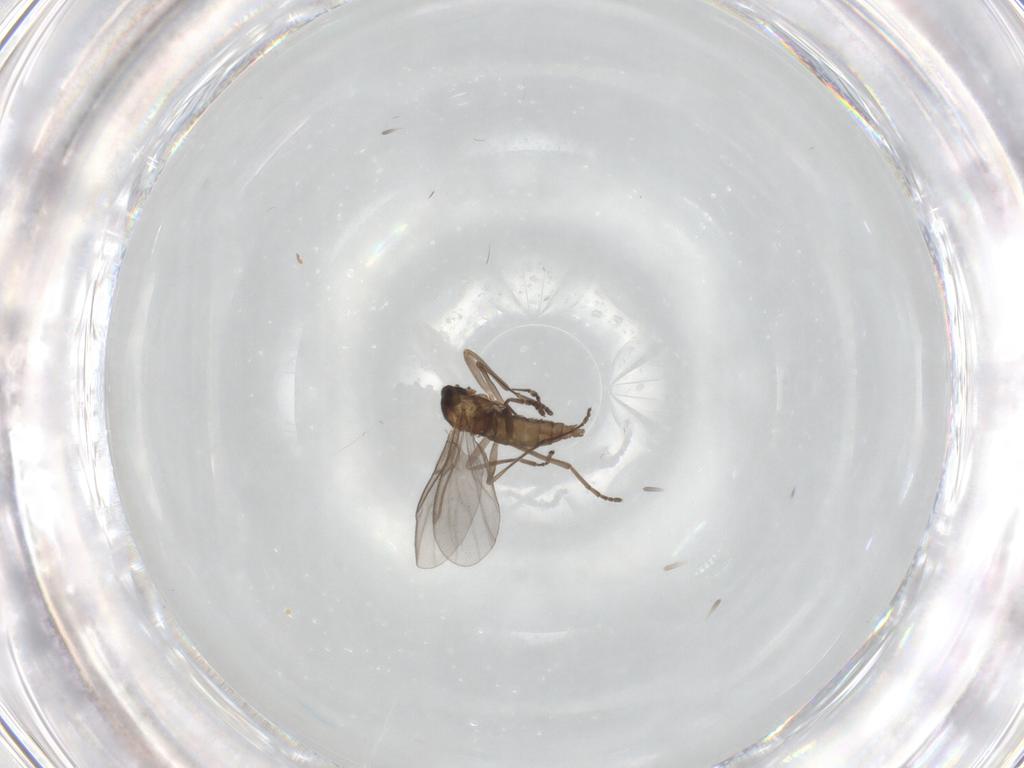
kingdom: Animalia
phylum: Arthropoda
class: Insecta
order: Diptera
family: Cecidomyiidae
